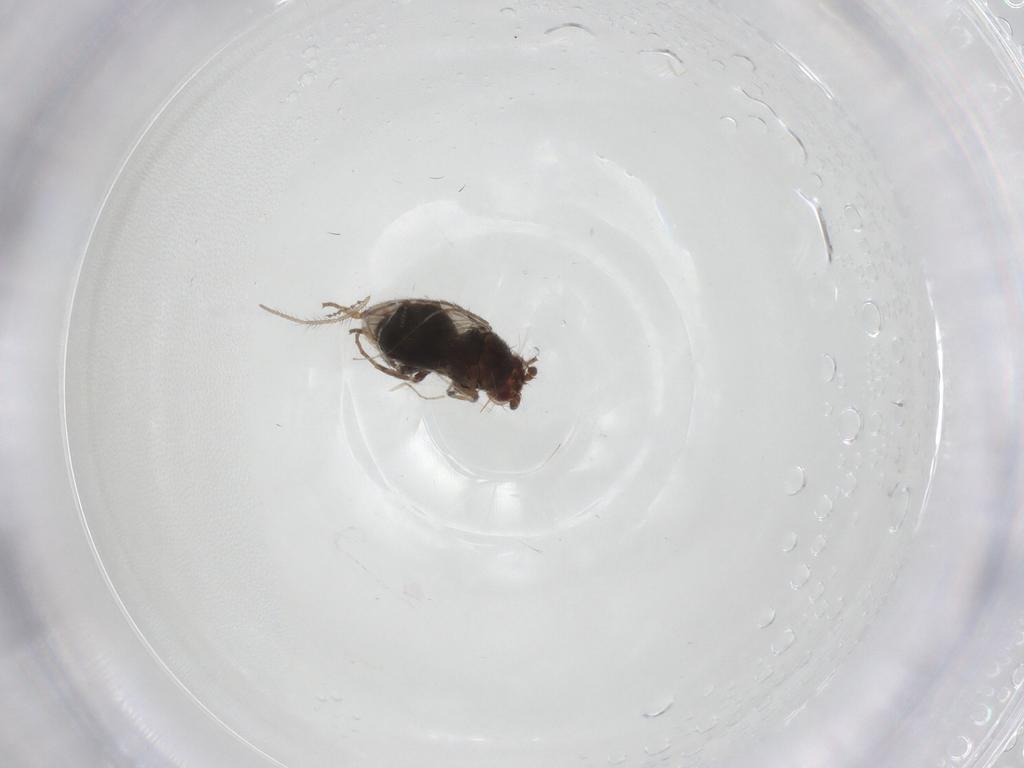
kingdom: Animalia
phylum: Arthropoda
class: Insecta
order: Diptera
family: Sphaeroceridae
